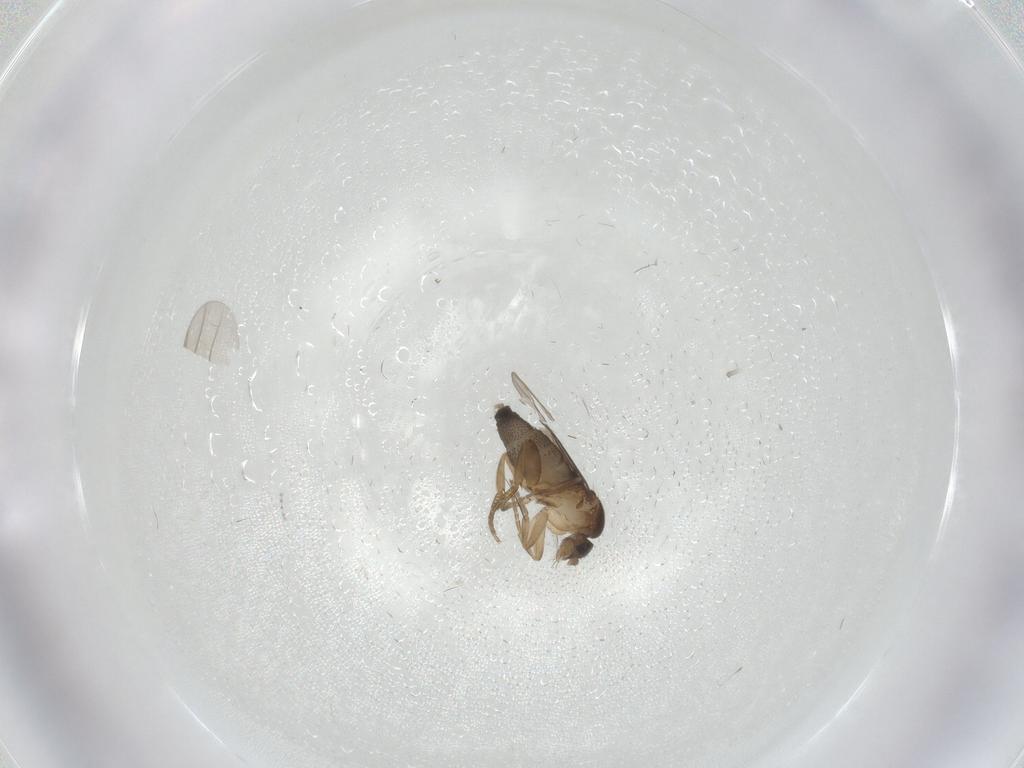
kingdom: Animalia
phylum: Arthropoda
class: Insecta
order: Diptera
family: Phoridae
